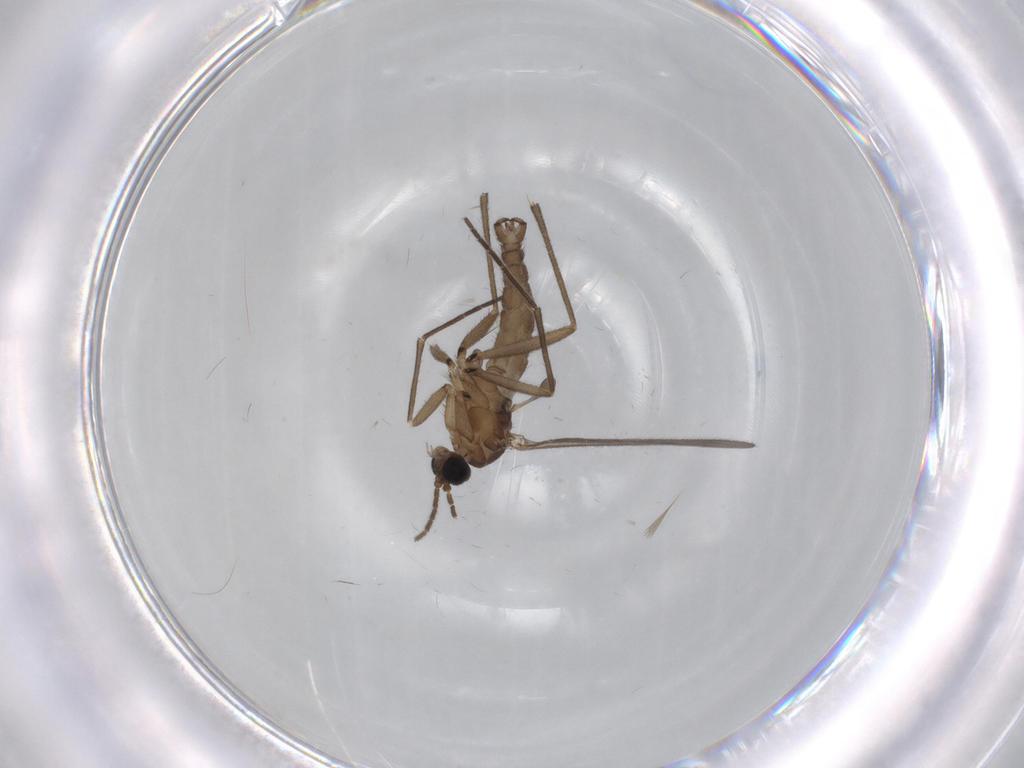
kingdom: Animalia
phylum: Arthropoda
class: Insecta
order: Diptera
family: Sciaridae
